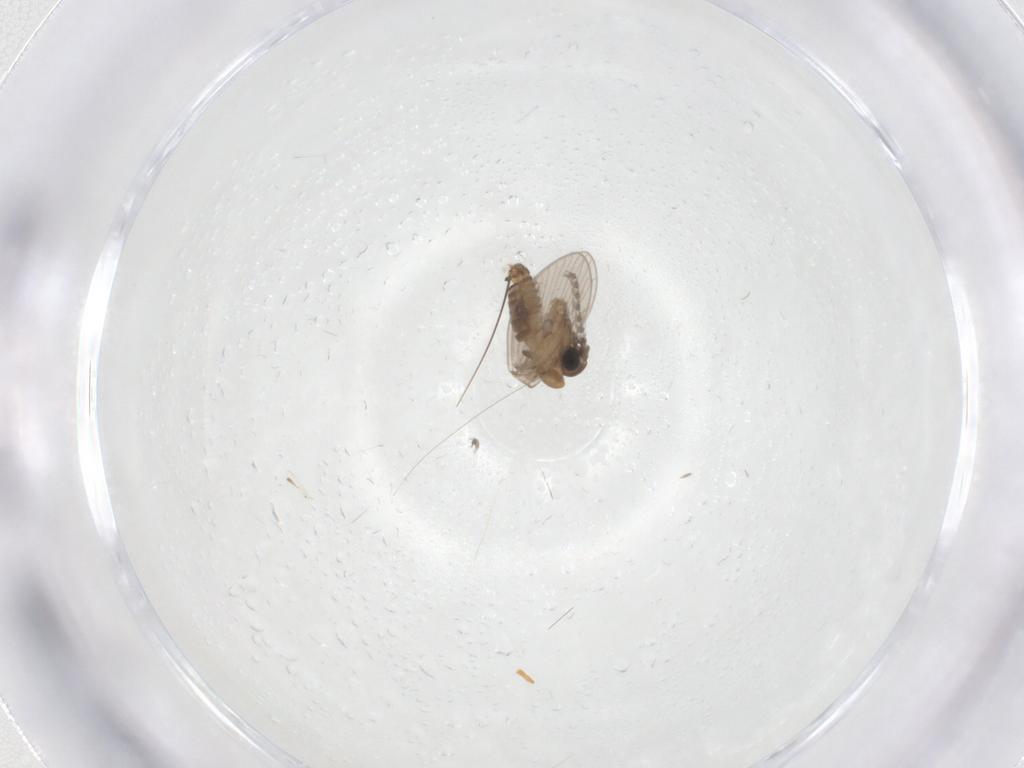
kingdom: Animalia
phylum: Arthropoda
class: Insecta
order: Diptera
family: Psychodidae
